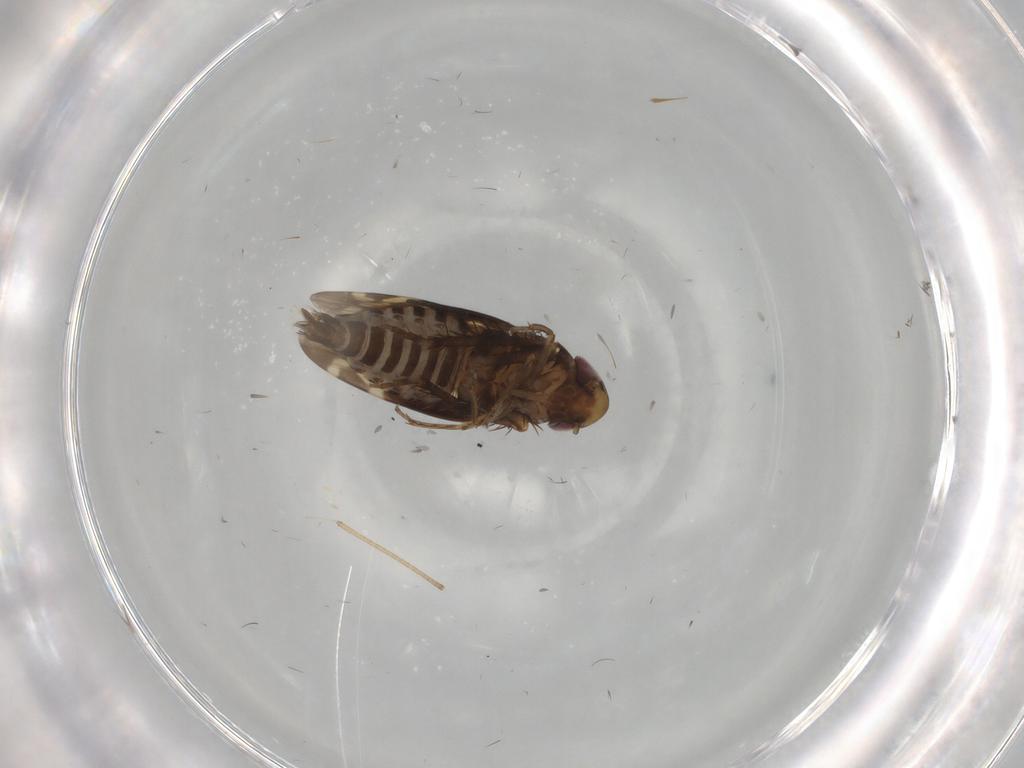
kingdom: Animalia
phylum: Arthropoda
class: Insecta
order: Hemiptera
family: Cicadellidae
